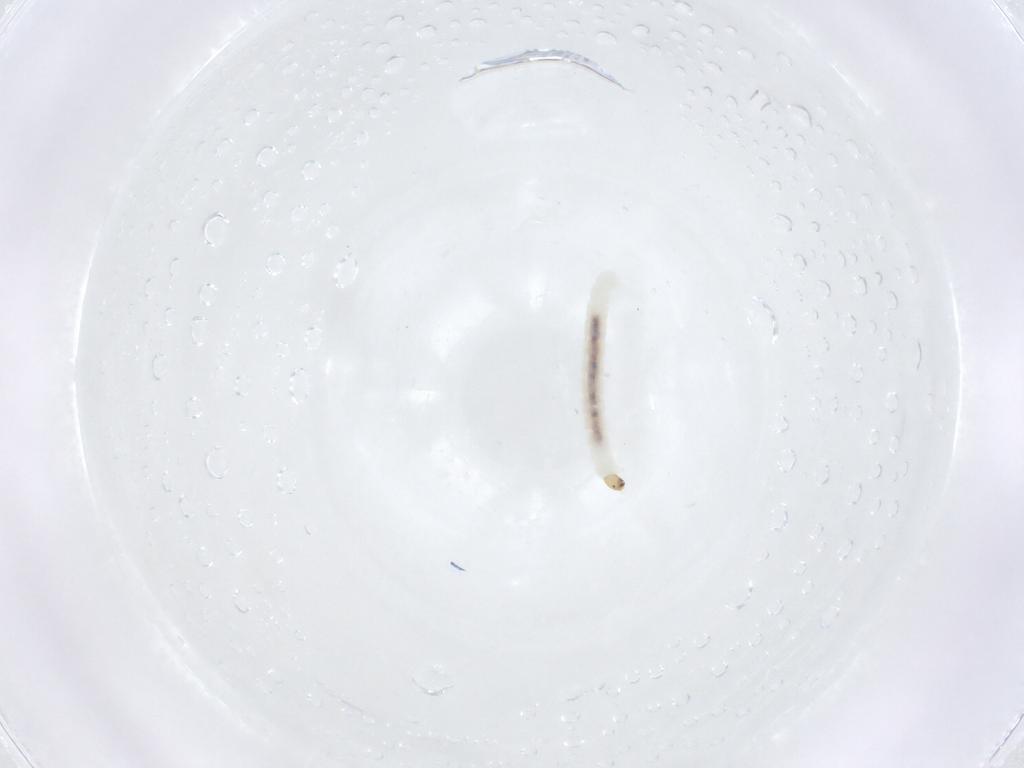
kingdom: Animalia
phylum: Arthropoda
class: Insecta
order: Diptera
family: Chironomidae
